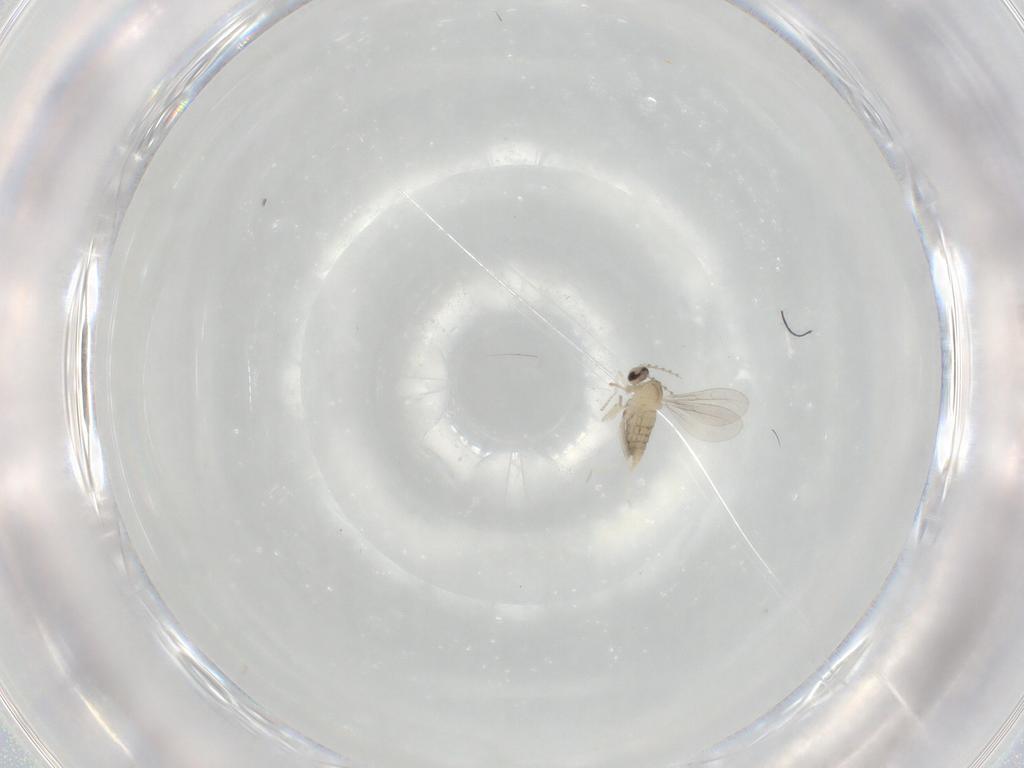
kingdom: Animalia
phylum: Arthropoda
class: Insecta
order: Diptera
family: Cecidomyiidae
